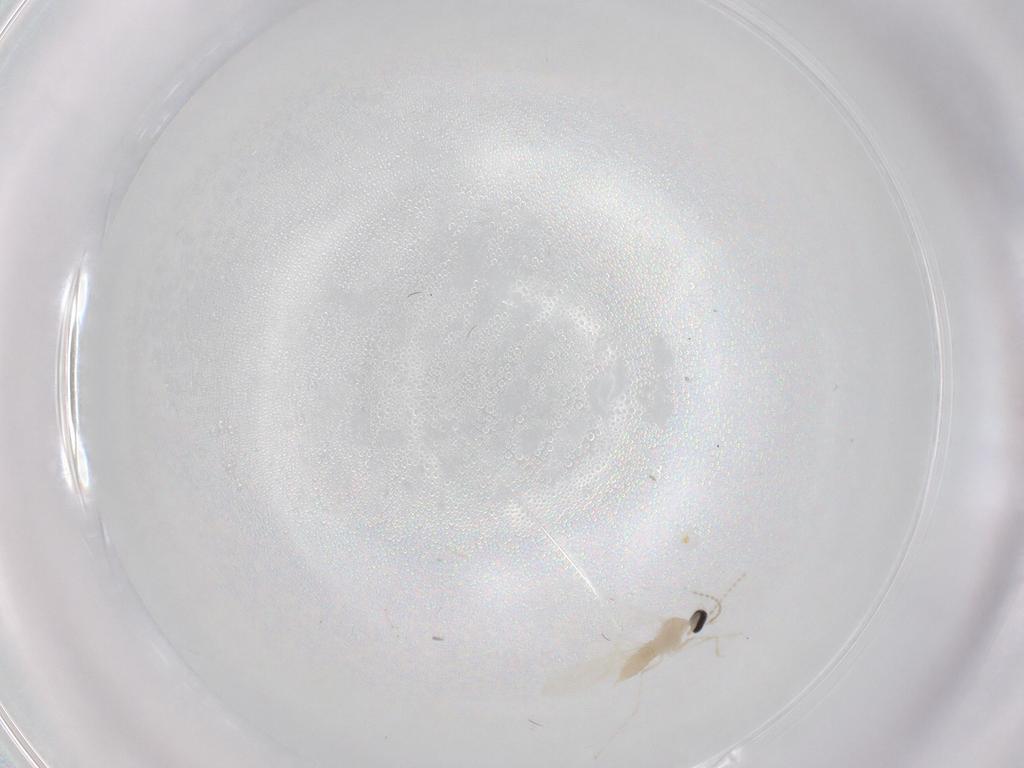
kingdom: Animalia
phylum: Arthropoda
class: Insecta
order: Diptera
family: Cecidomyiidae
